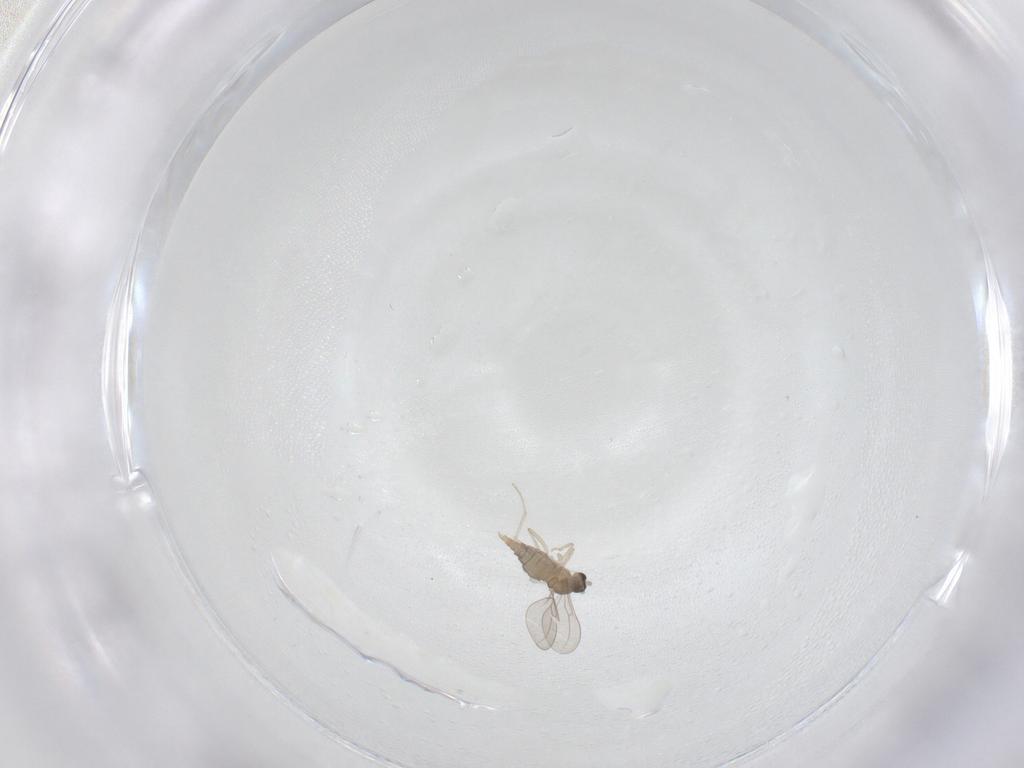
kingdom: Animalia
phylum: Arthropoda
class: Insecta
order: Diptera
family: Cecidomyiidae
